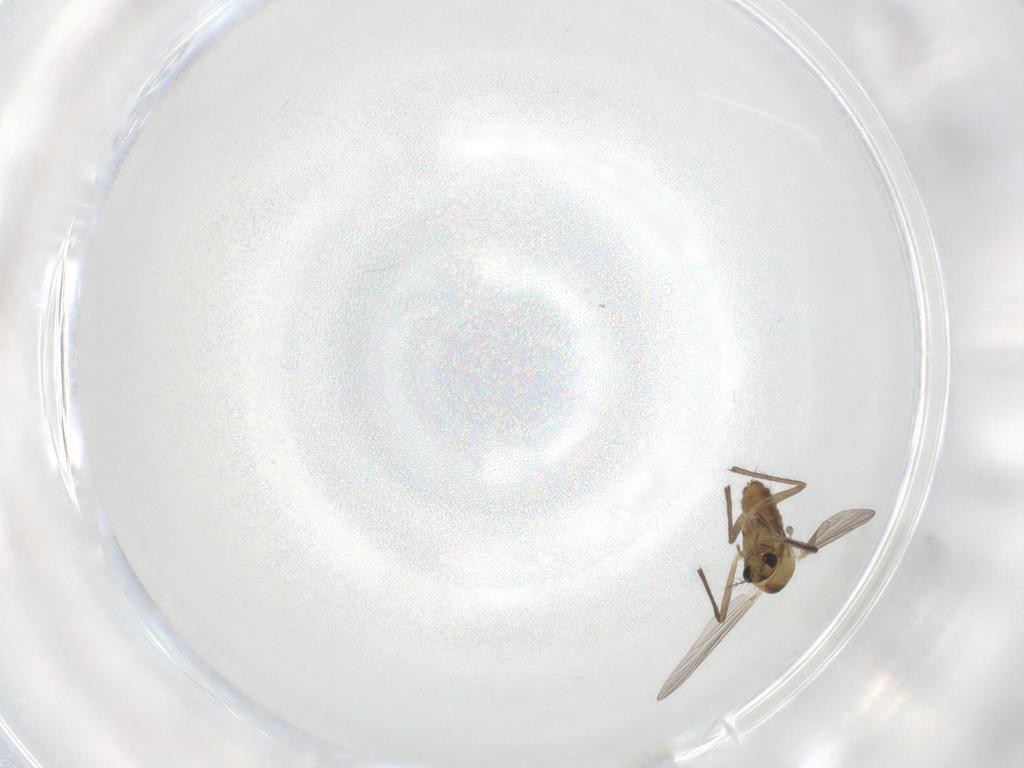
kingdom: Animalia
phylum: Arthropoda
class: Insecta
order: Diptera
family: Chironomidae
